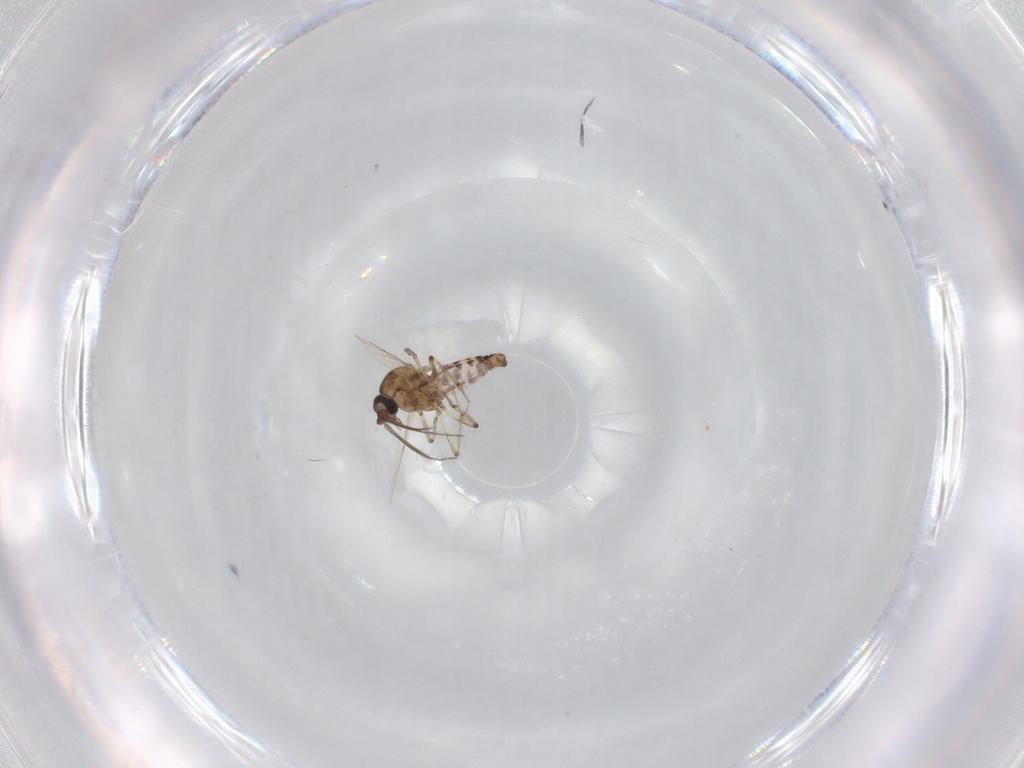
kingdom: Animalia
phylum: Arthropoda
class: Insecta
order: Diptera
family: Ceratopogonidae
